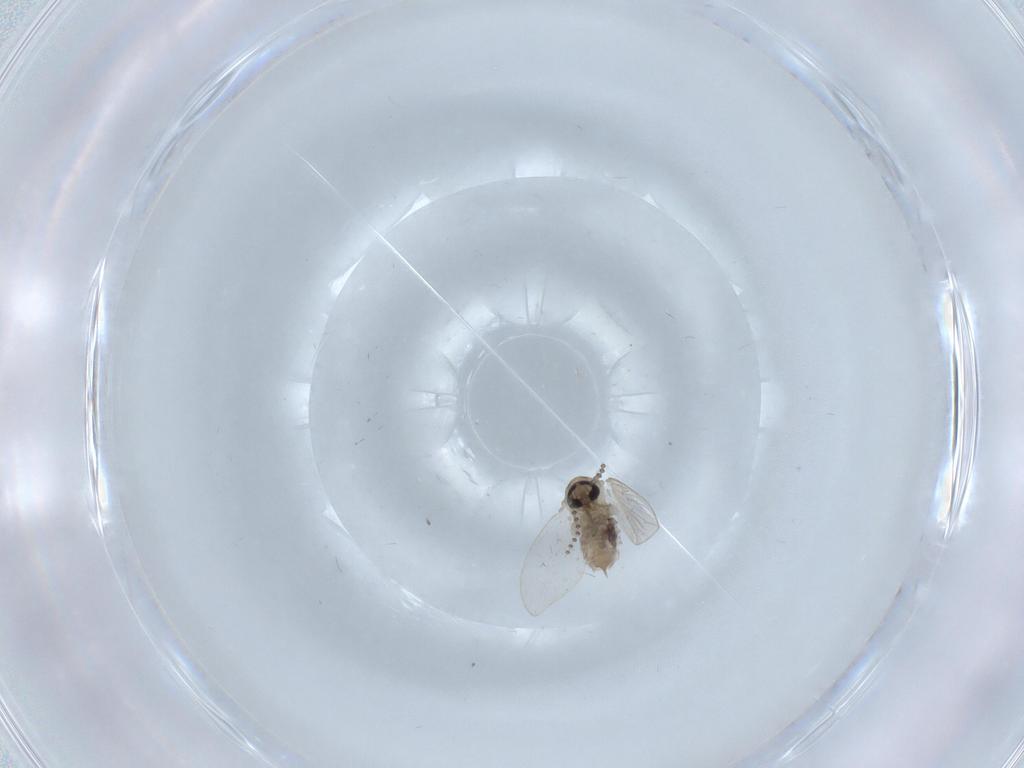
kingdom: Animalia
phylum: Arthropoda
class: Insecta
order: Diptera
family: Psychodidae
